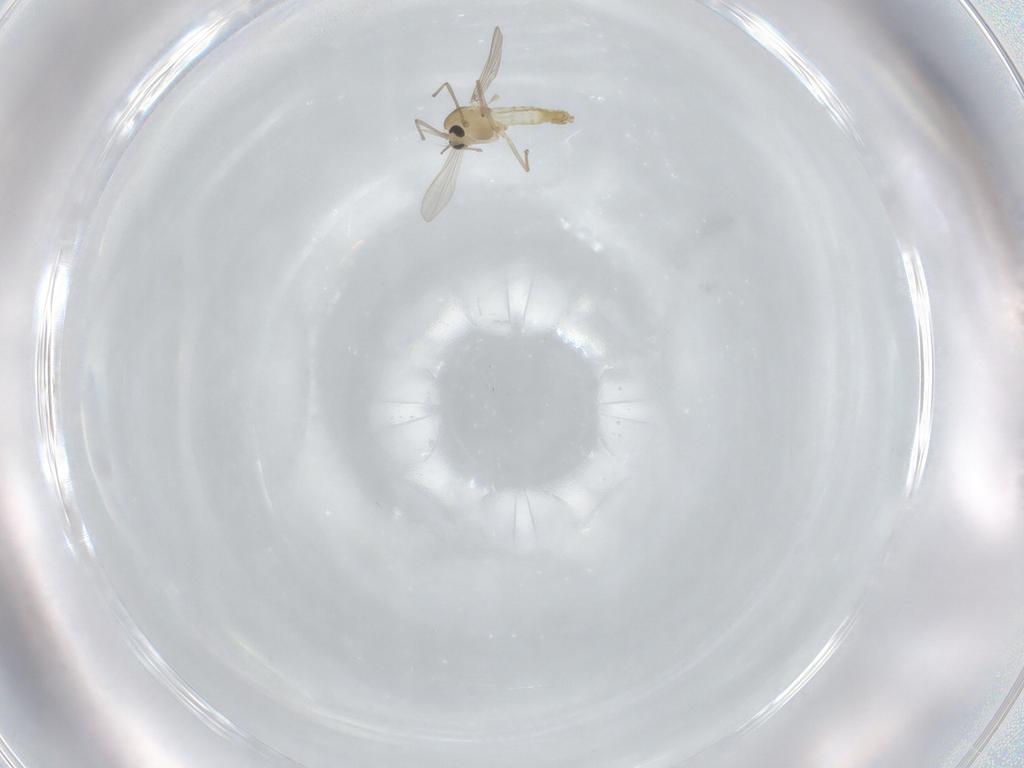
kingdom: Animalia
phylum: Arthropoda
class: Insecta
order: Diptera
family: Chironomidae
